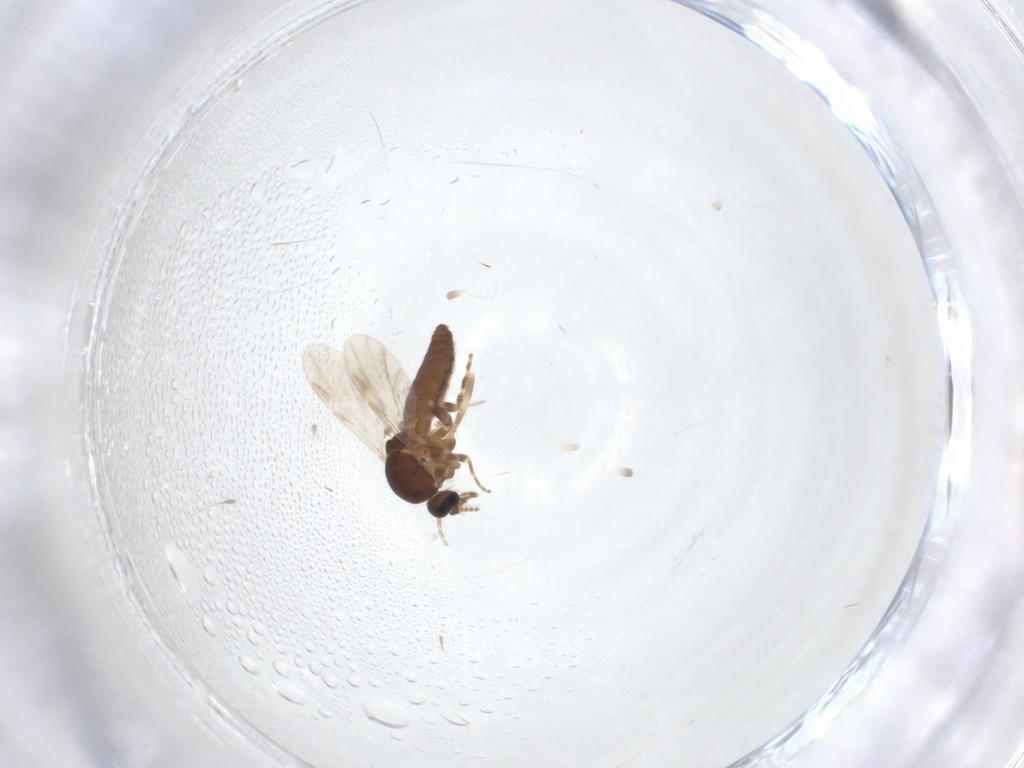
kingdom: Animalia
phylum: Arthropoda
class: Insecta
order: Diptera
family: Ceratopogonidae
